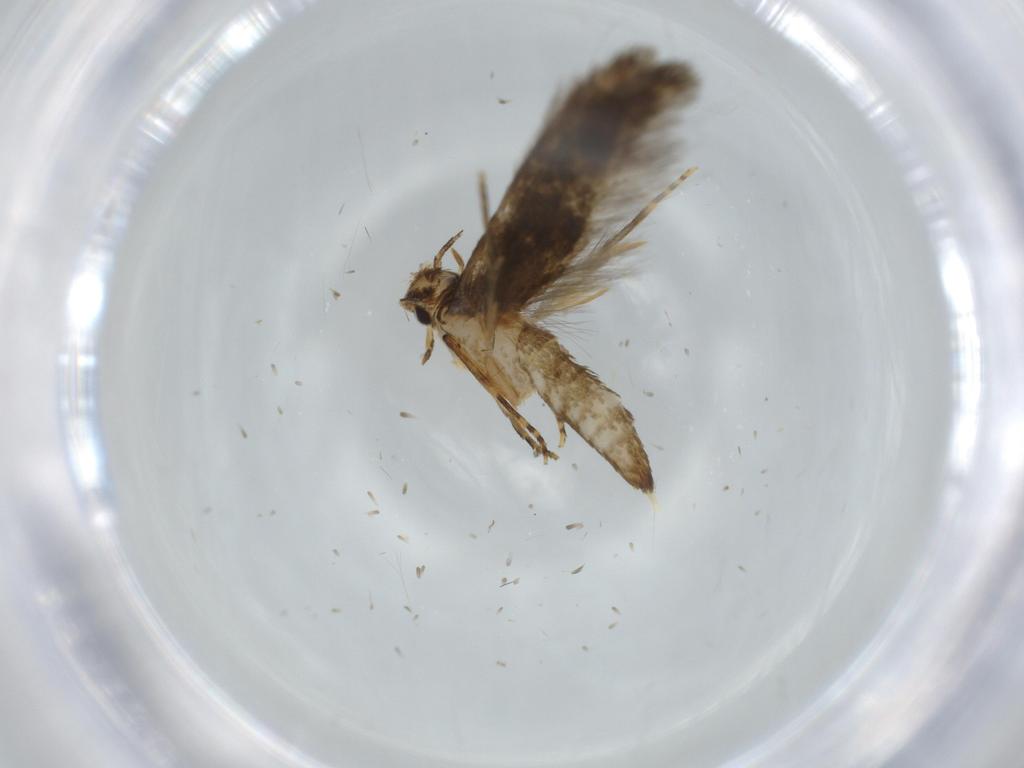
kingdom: Animalia
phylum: Arthropoda
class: Insecta
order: Lepidoptera
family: Tineidae
